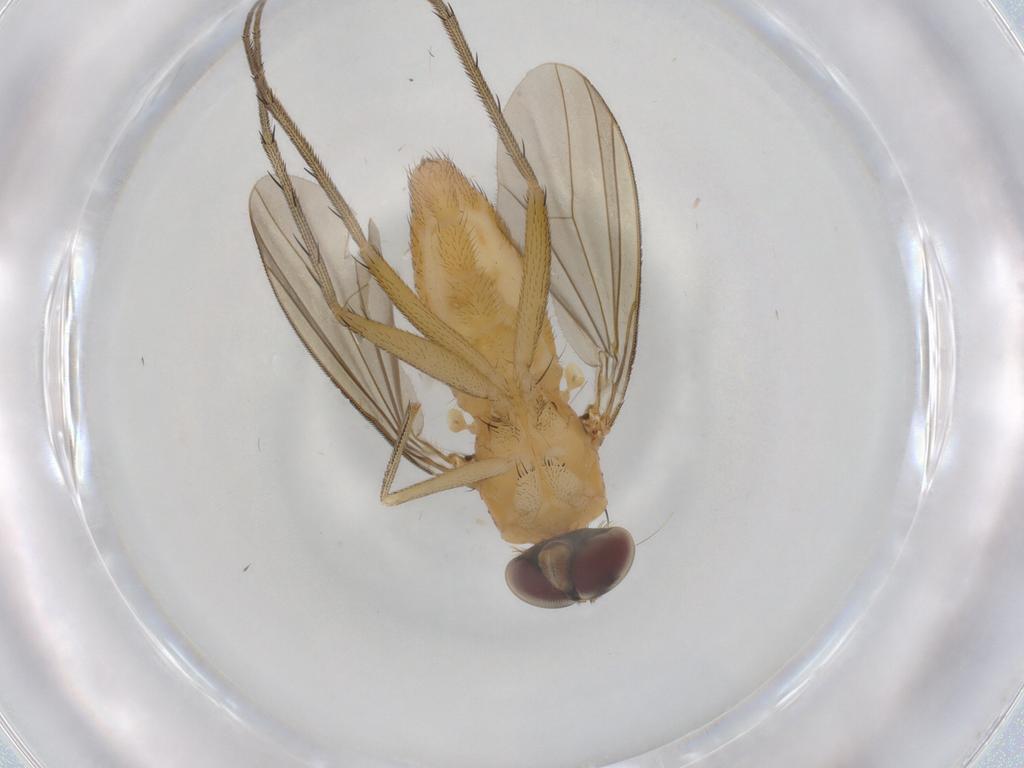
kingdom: Animalia
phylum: Arthropoda
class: Insecta
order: Diptera
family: Dolichopodidae
